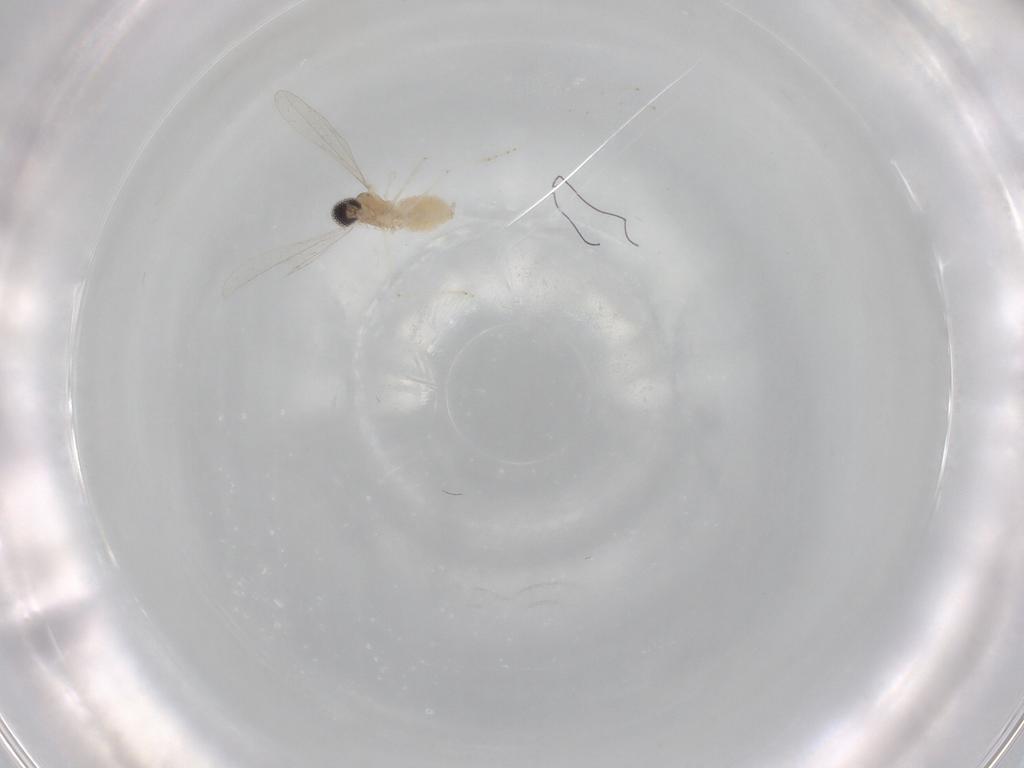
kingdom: Animalia
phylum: Arthropoda
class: Insecta
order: Diptera
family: Cecidomyiidae
